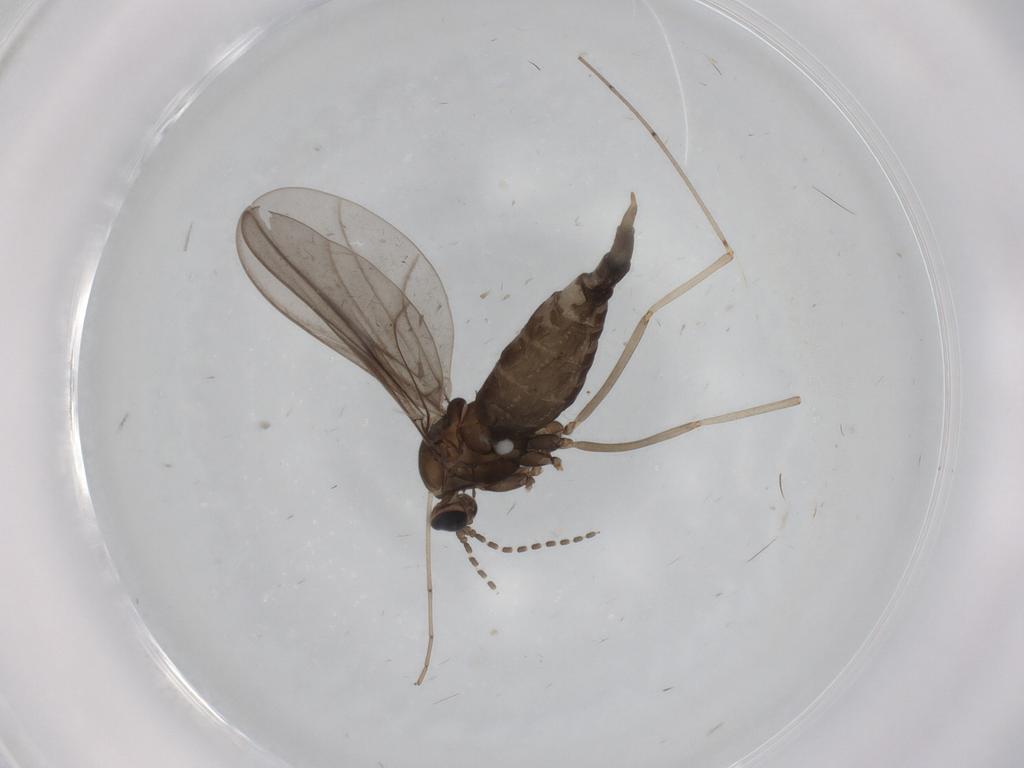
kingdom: Animalia
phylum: Arthropoda
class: Insecta
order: Diptera
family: Cecidomyiidae
